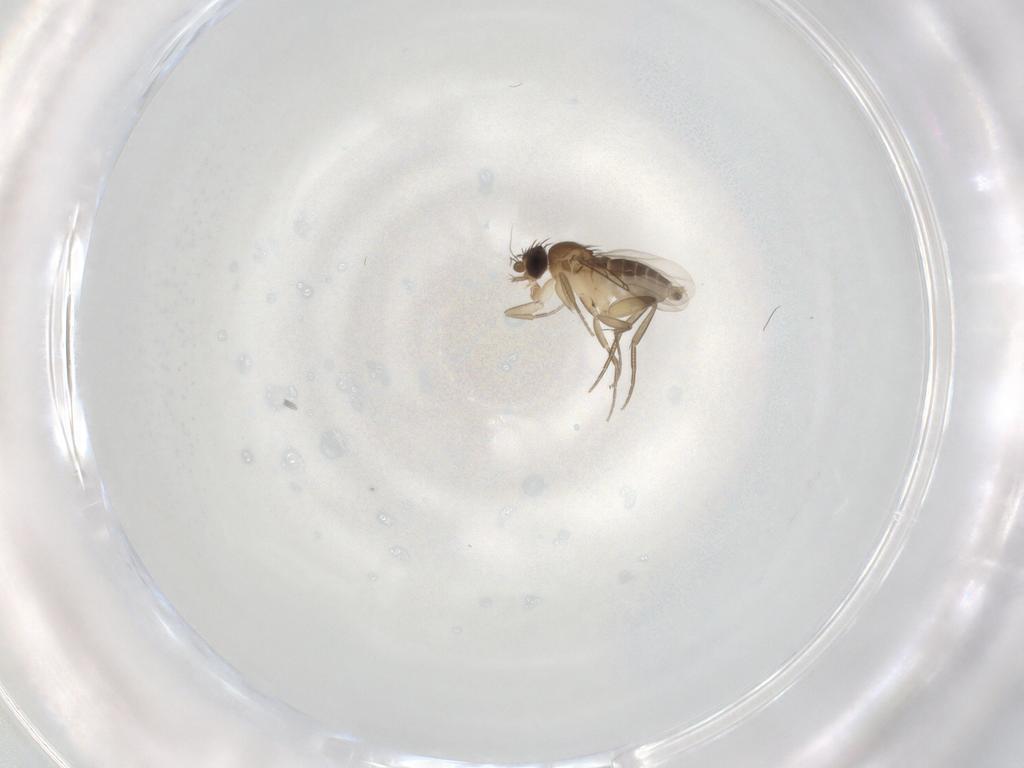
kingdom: Animalia
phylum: Arthropoda
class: Insecta
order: Diptera
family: Phoridae
